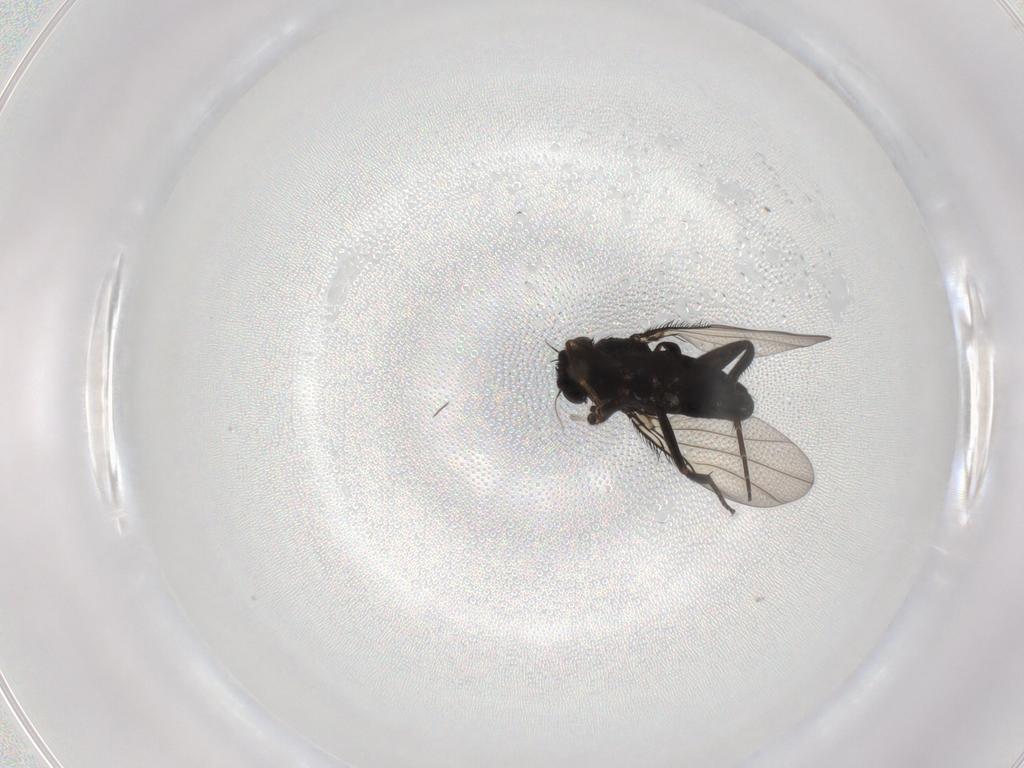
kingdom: Animalia
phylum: Arthropoda
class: Insecta
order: Diptera
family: Phoridae
